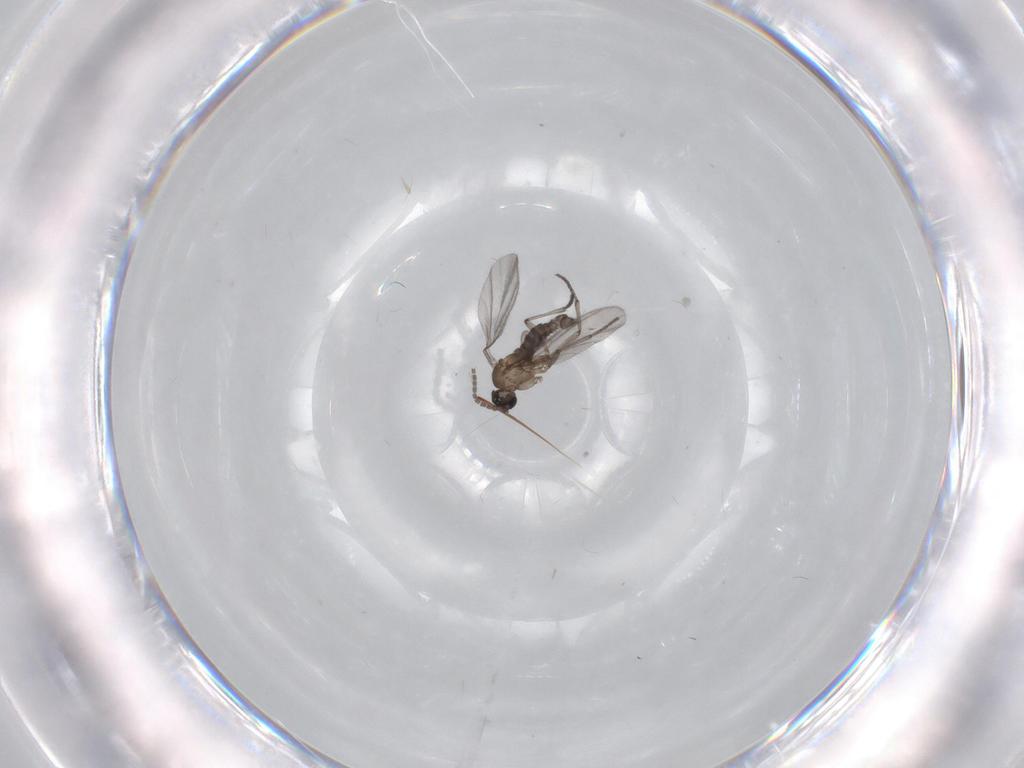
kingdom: Animalia
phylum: Arthropoda
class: Insecta
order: Diptera
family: Sciaridae
